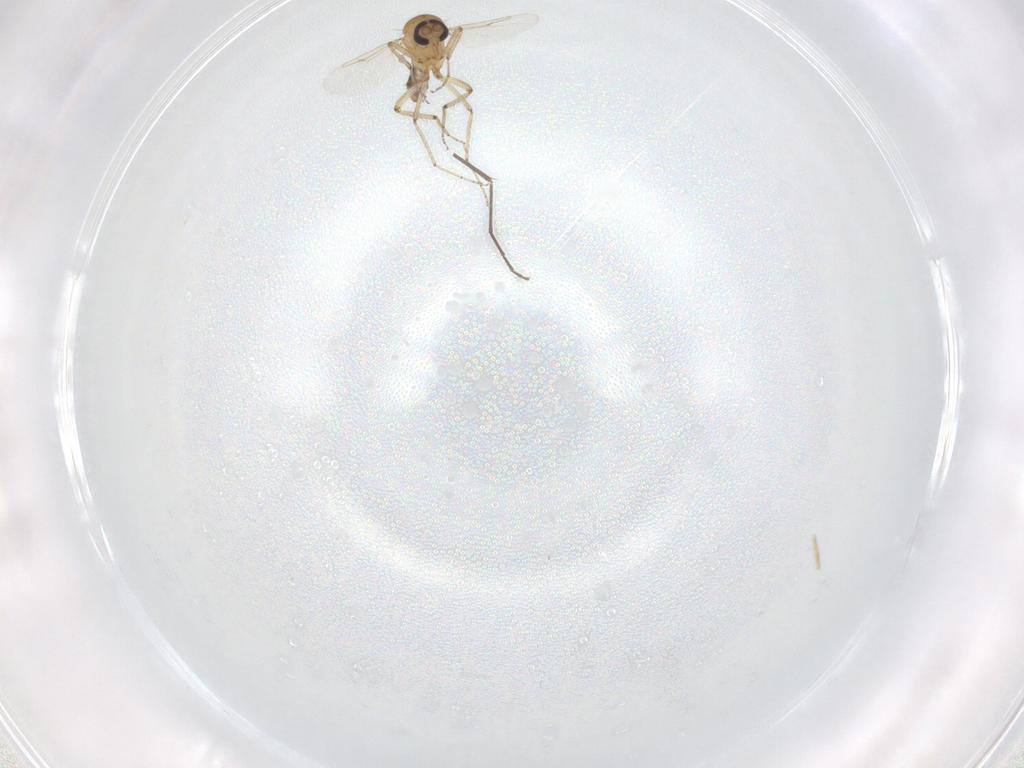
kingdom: Animalia
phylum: Arthropoda
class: Insecta
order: Diptera
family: Ceratopogonidae
